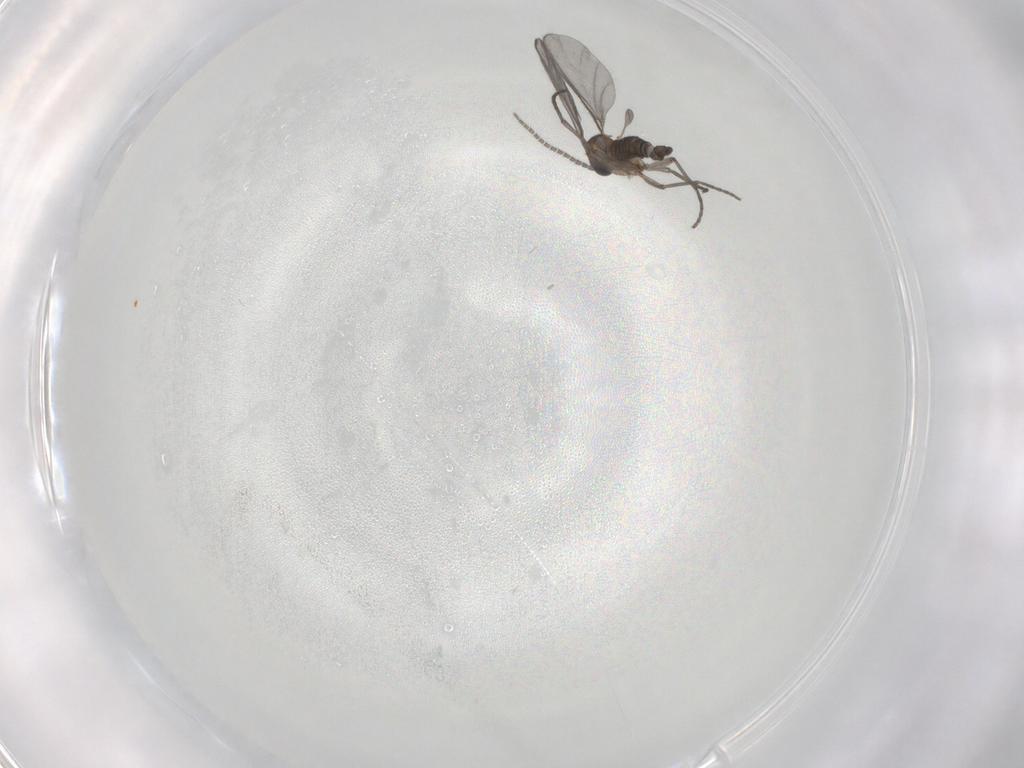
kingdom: Animalia
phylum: Arthropoda
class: Insecta
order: Diptera
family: Sciaridae
